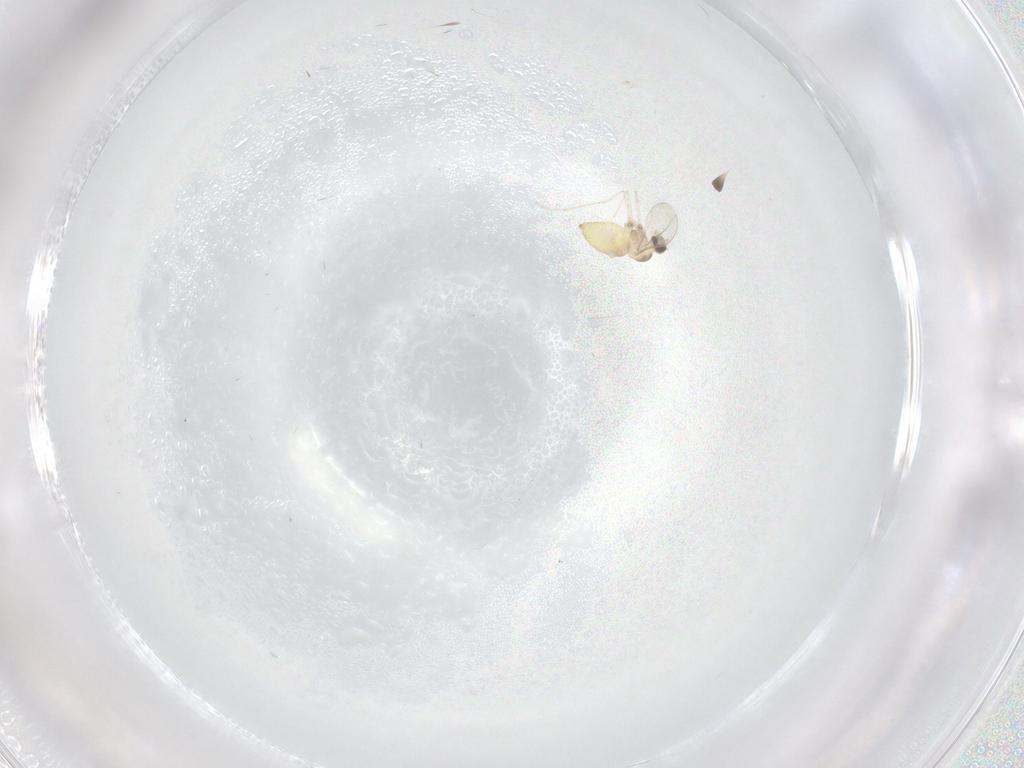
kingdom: Animalia
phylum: Arthropoda
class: Insecta
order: Diptera
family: Cecidomyiidae
